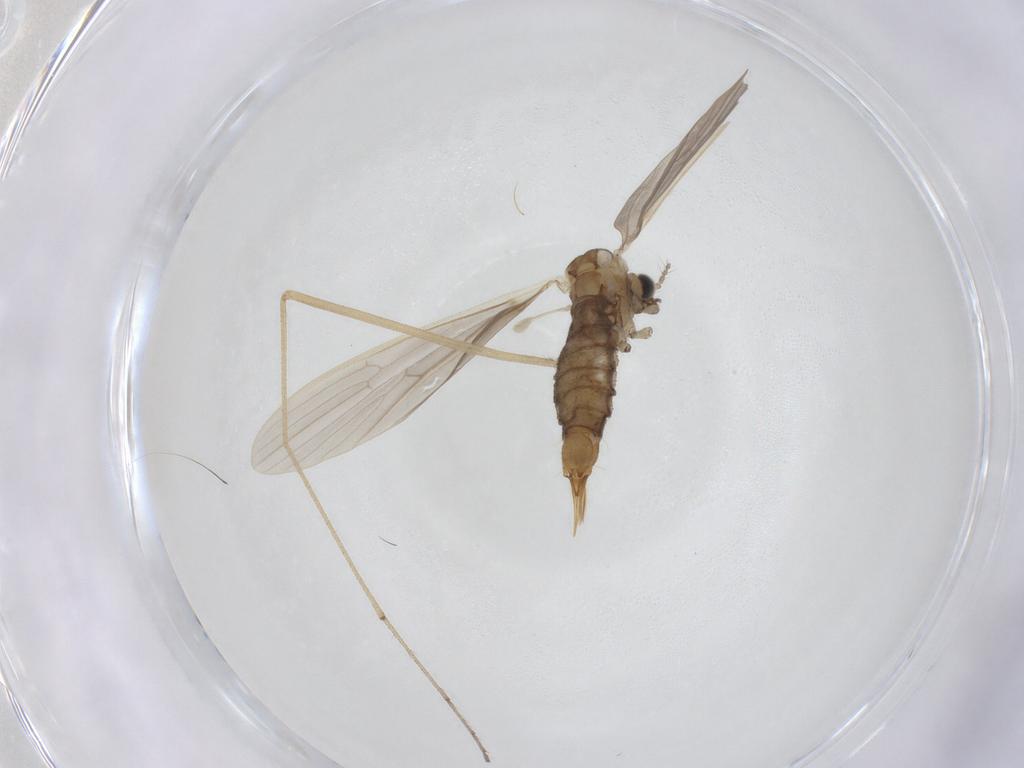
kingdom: Animalia
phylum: Arthropoda
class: Insecta
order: Diptera
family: Limoniidae
